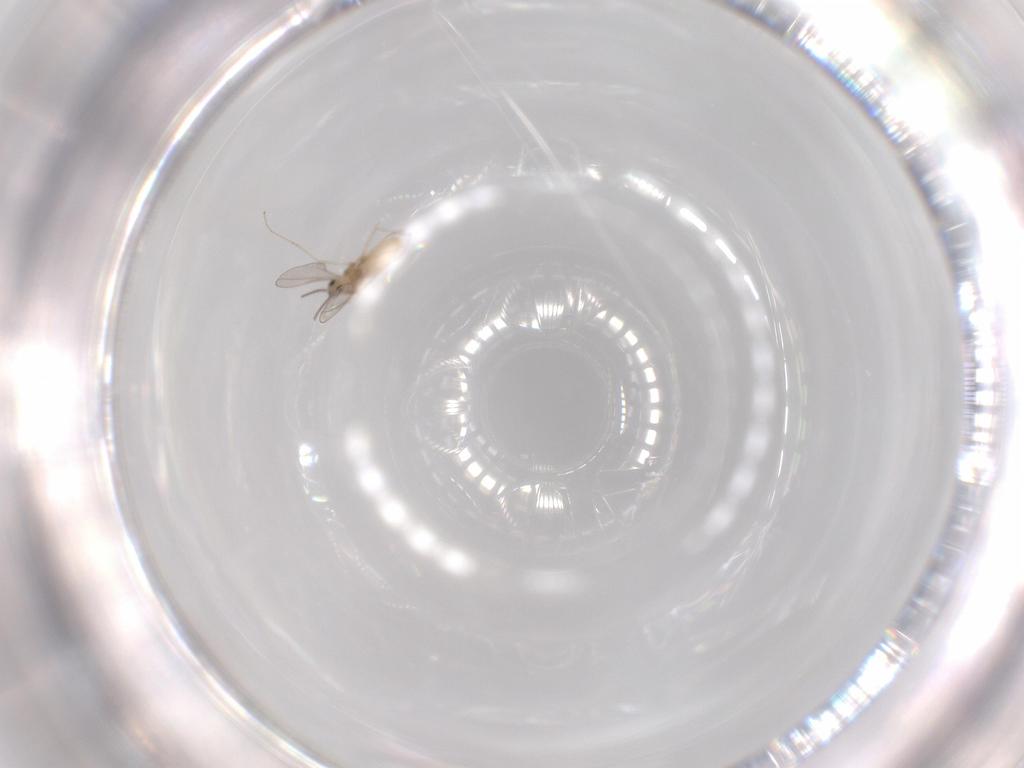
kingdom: Animalia
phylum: Arthropoda
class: Insecta
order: Diptera
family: Cecidomyiidae
